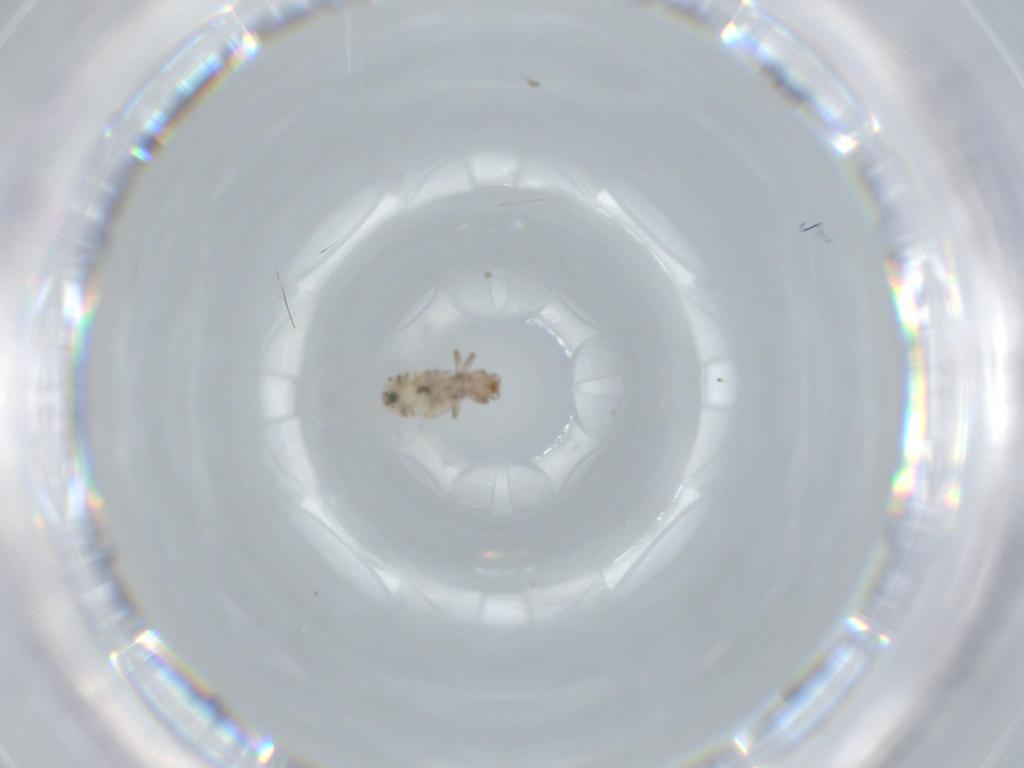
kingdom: Animalia
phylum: Arthropoda
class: Insecta
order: Psocodea
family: Liposcelididae
